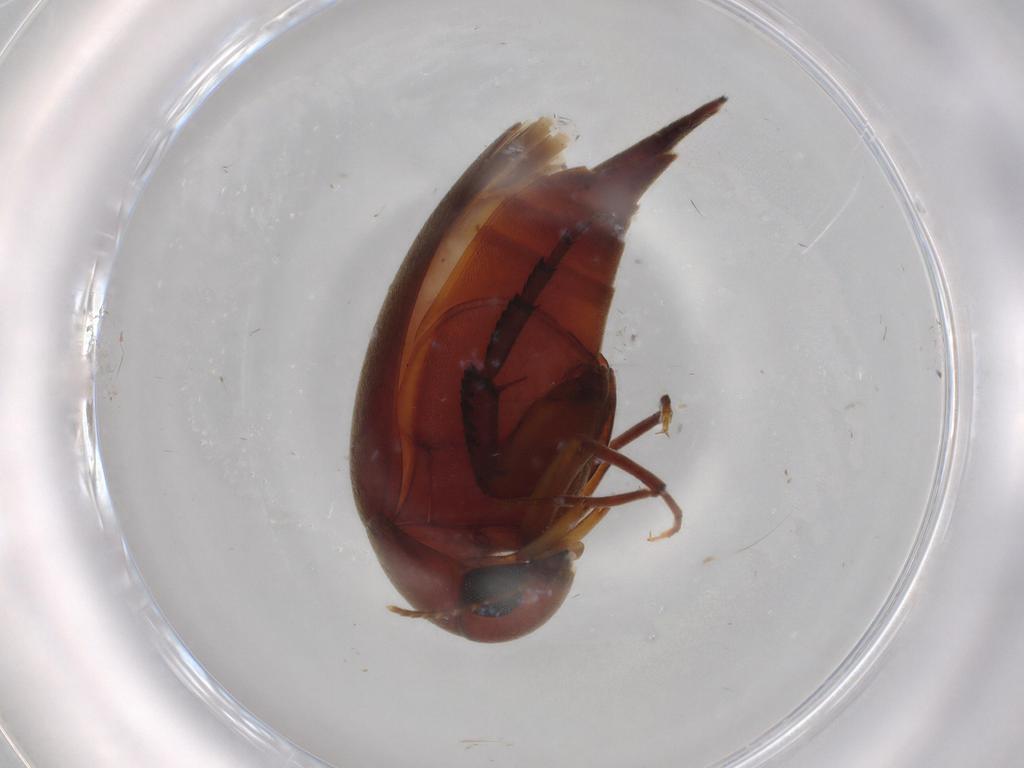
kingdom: Animalia
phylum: Arthropoda
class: Insecta
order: Coleoptera
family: Mordellidae
